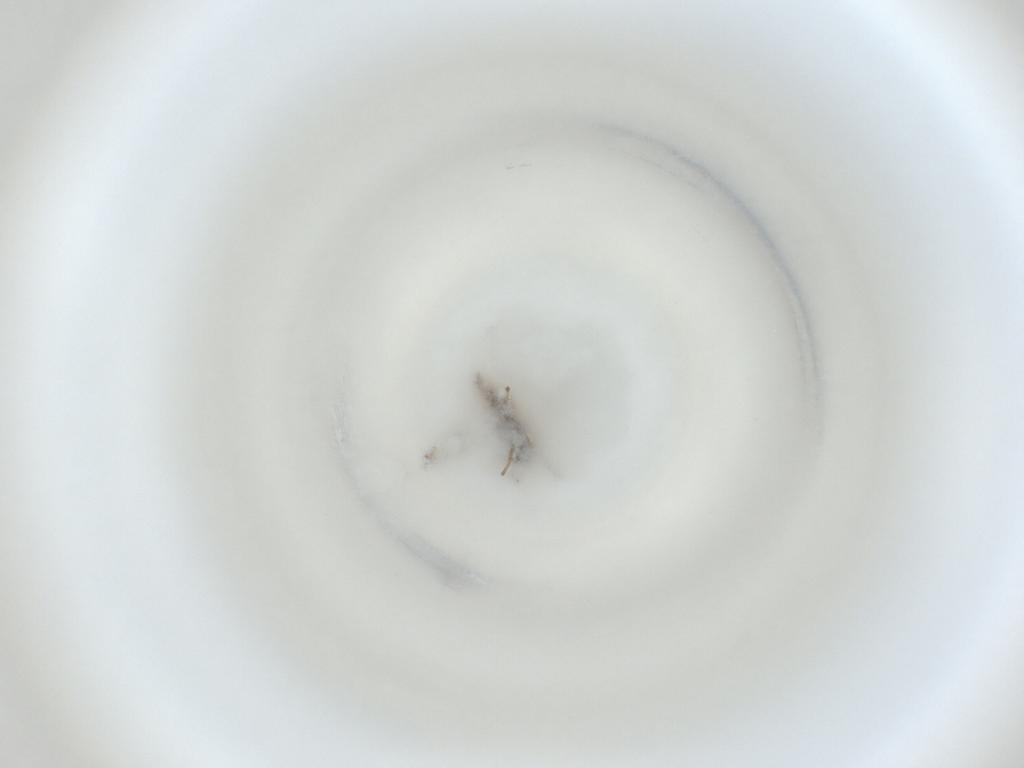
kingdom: Animalia
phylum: Arthropoda
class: Insecta
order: Diptera
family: Cecidomyiidae
